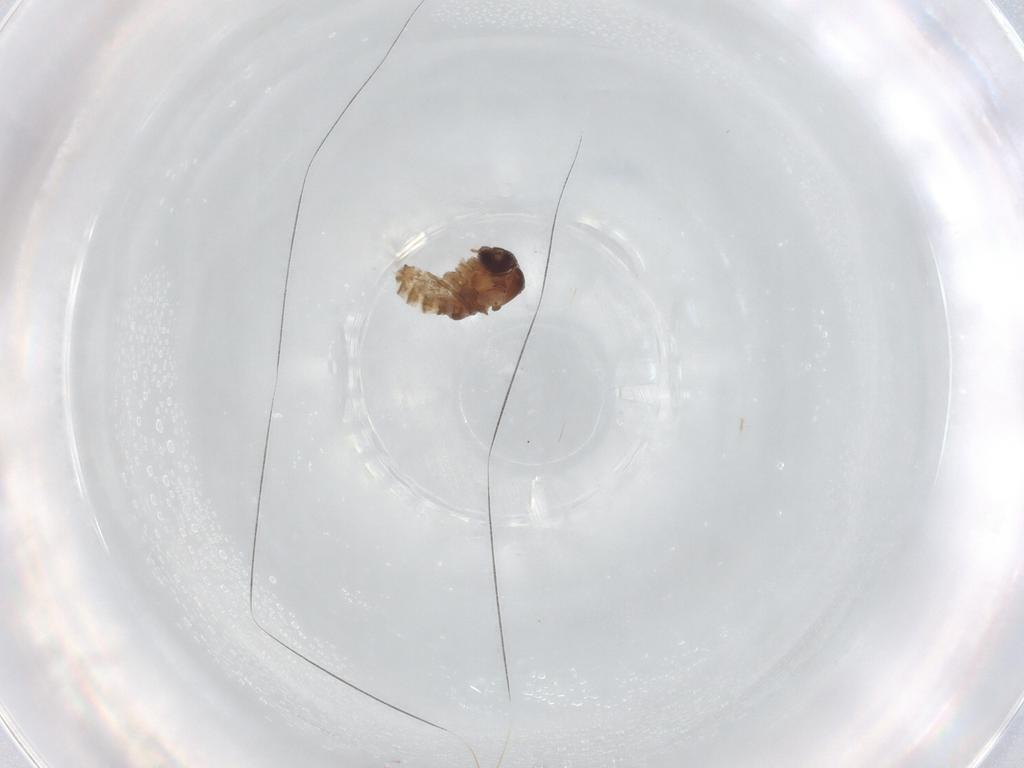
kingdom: Animalia
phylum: Arthropoda
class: Insecta
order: Diptera
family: Psychodidae
